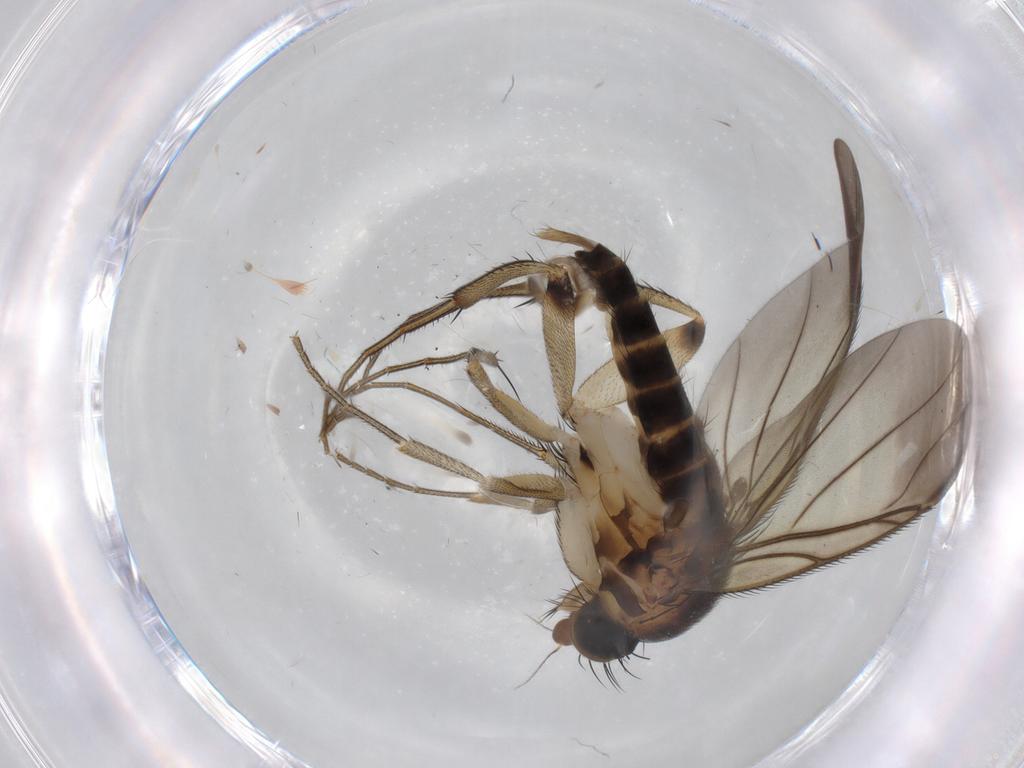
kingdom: Animalia
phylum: Arthropoda
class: Insecta
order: Diptera
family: Phoridae
